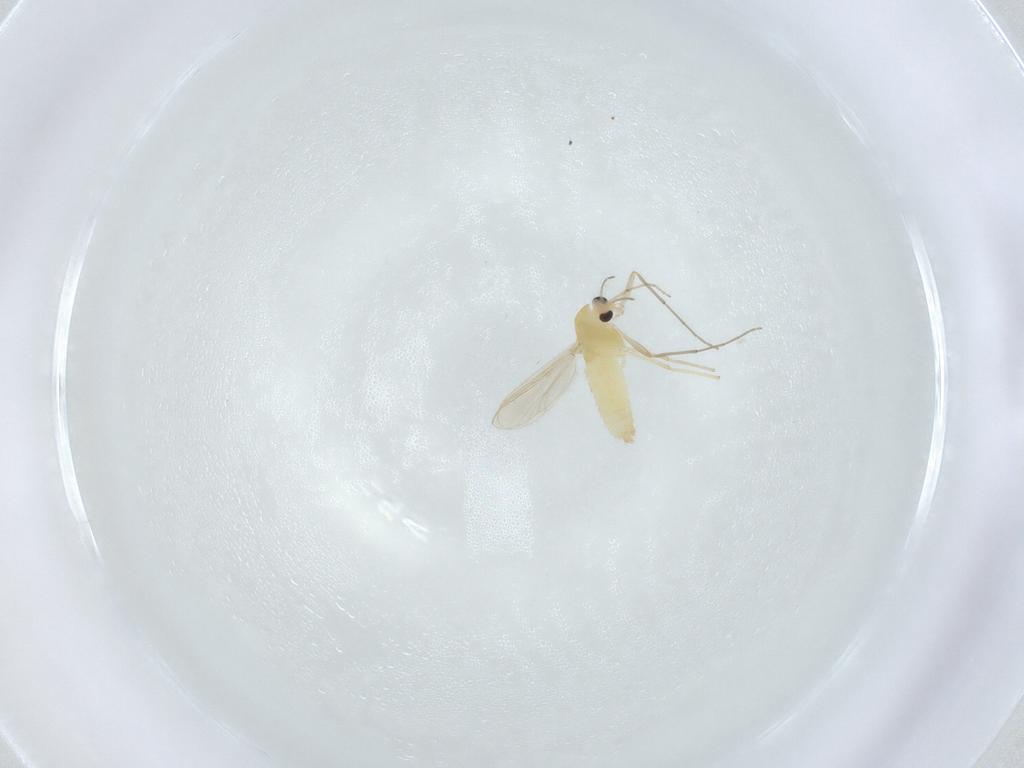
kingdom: Animalia
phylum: Arthropoda
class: Insecta
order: Diptera
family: Chironomidae
